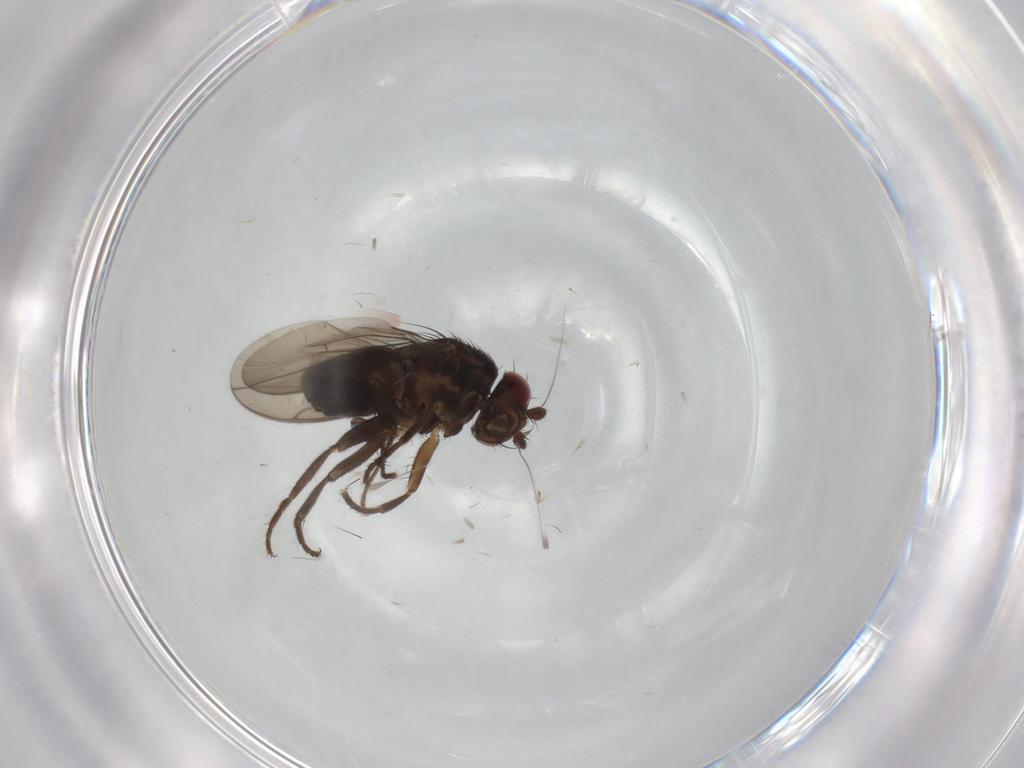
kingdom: Animalia
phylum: Arthropoda
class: Insecta
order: Diptera
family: Sphaeroceridae
